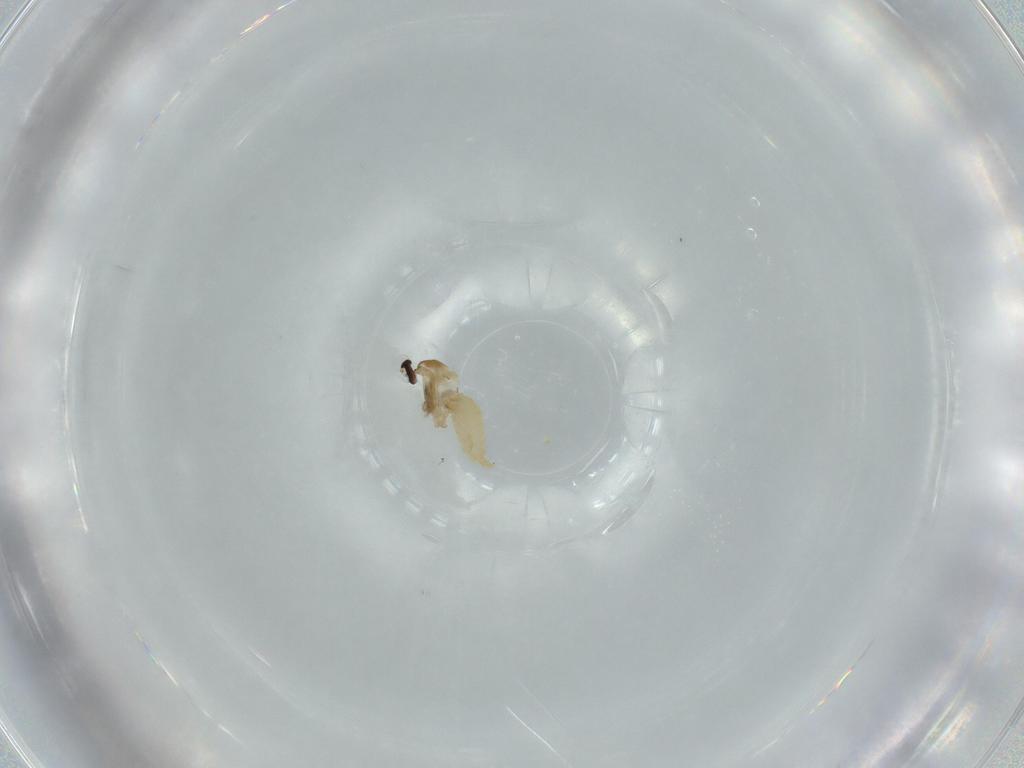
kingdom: Animalia
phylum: Arthropoda
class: Insecta
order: Diptera
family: Cecidomyiidae
